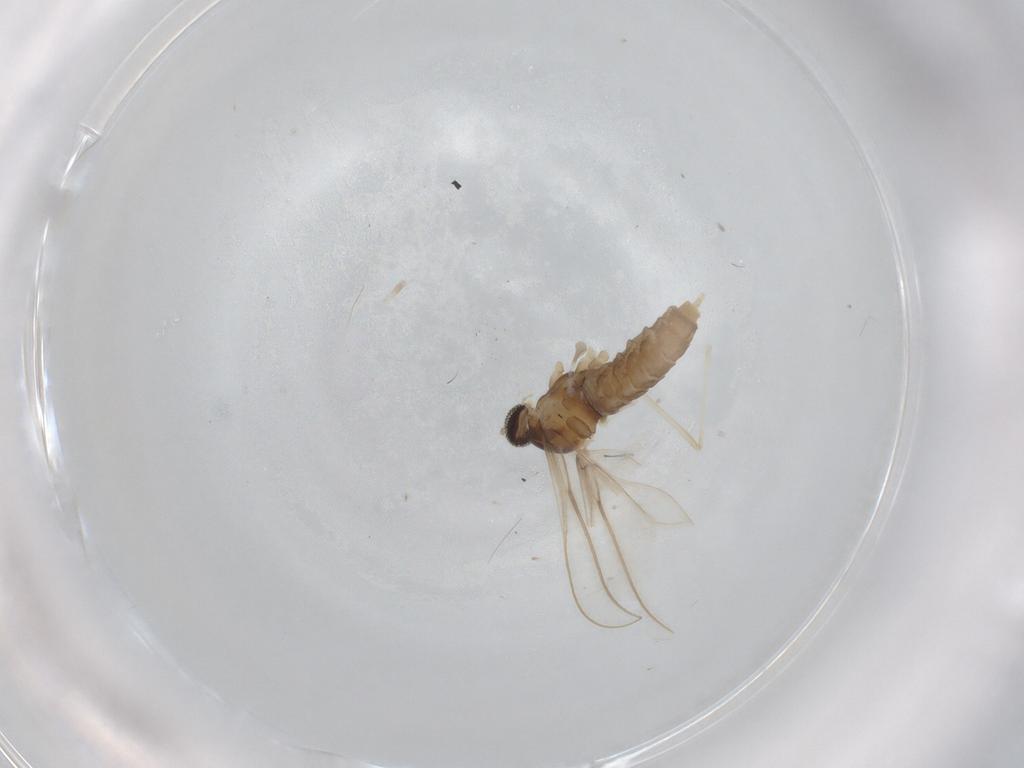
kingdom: Animalia
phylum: Arthropoda
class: Insecta
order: Diptera
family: Cecidomyiidae
